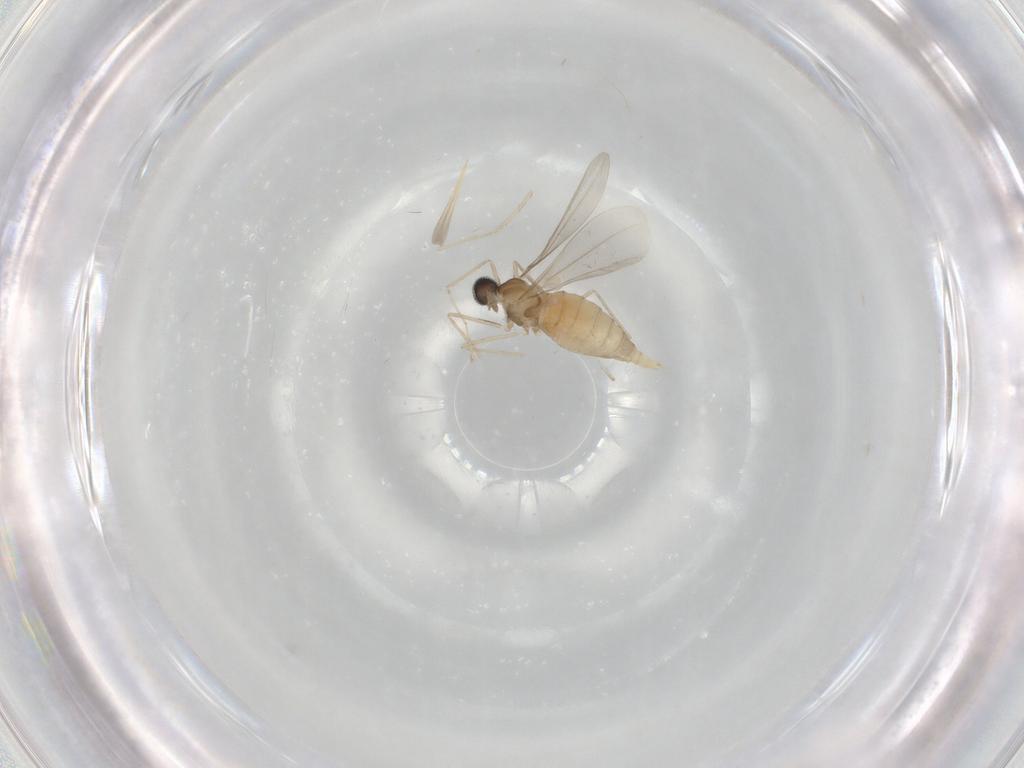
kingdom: Animalia
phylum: Arthropoda
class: Insecta
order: Diptera
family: Cecidomyiidae
